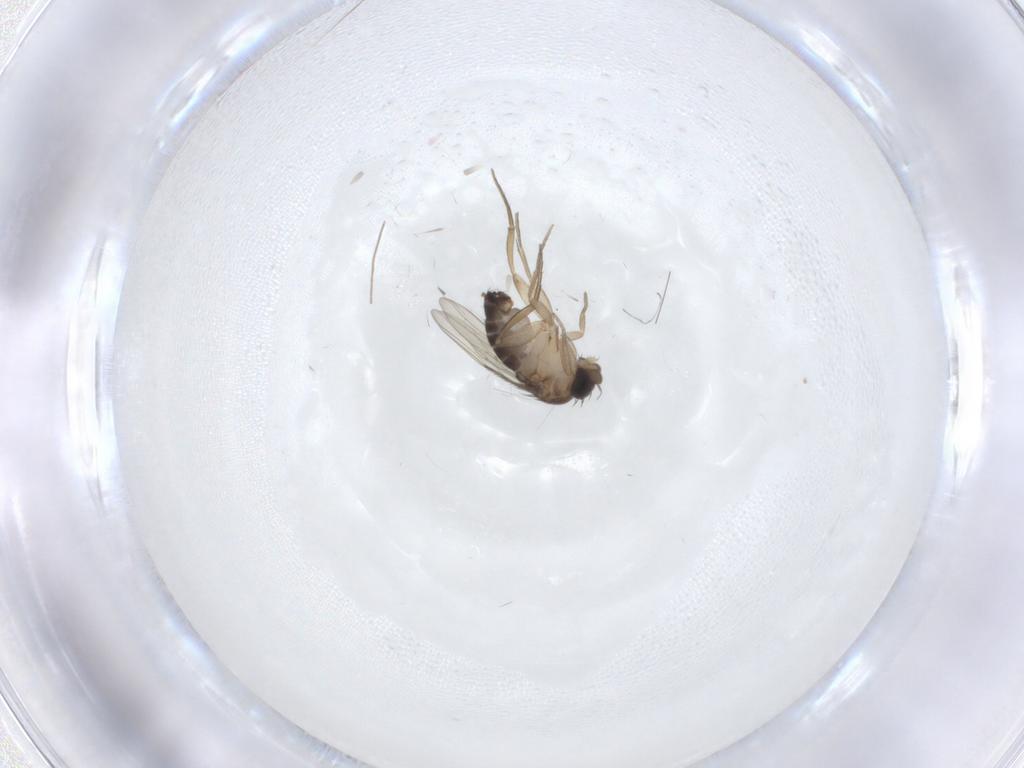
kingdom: Animalia
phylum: Arthropoda
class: Insecta
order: Diptera
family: Chironomidae
